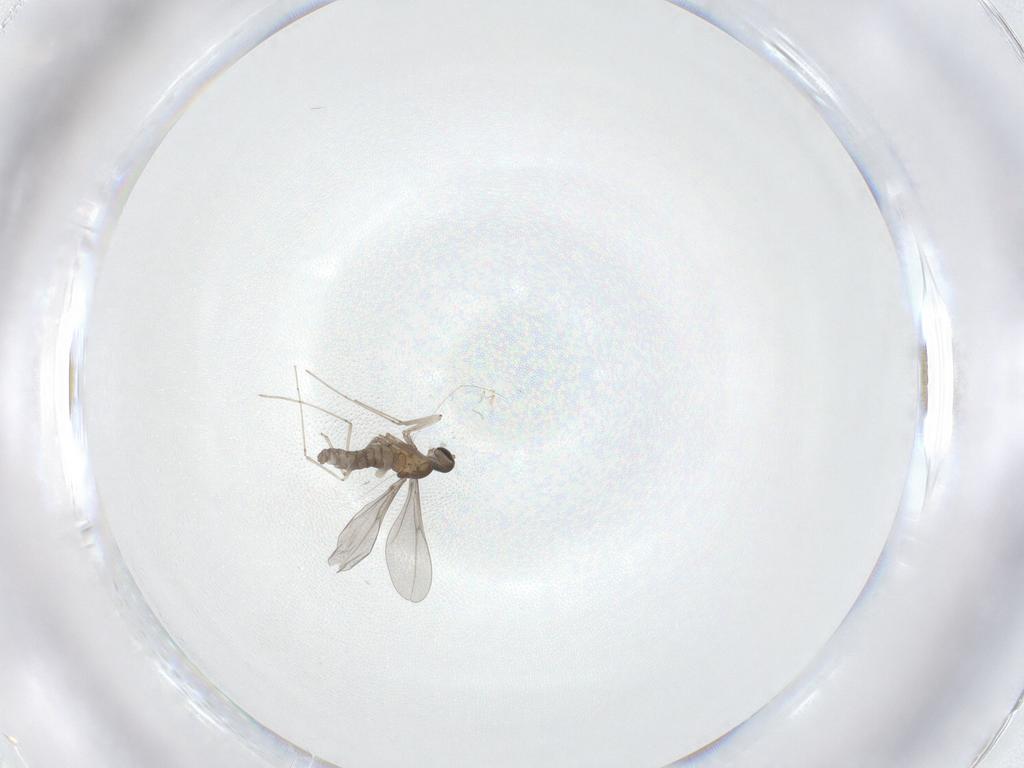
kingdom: Animalia
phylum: Arthropoda
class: Insecta
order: Diptera
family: Cecidomyiidae
